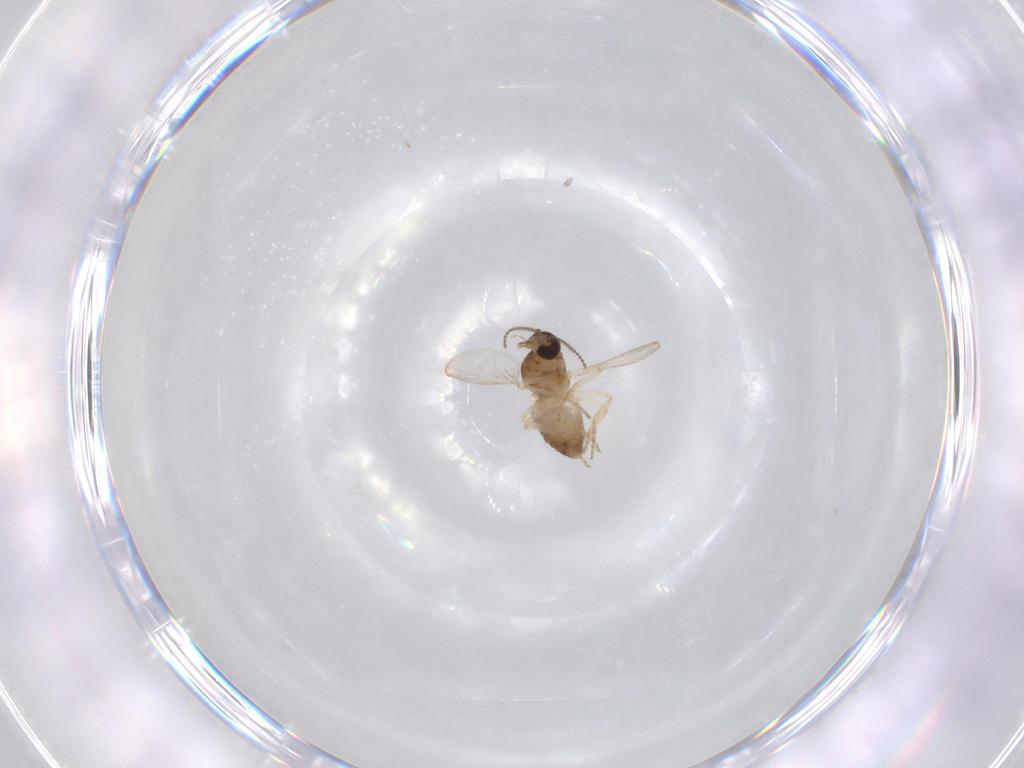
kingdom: Animalia
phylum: Arthropoda
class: Insecta
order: Diptera
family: Ceratopogonidae
